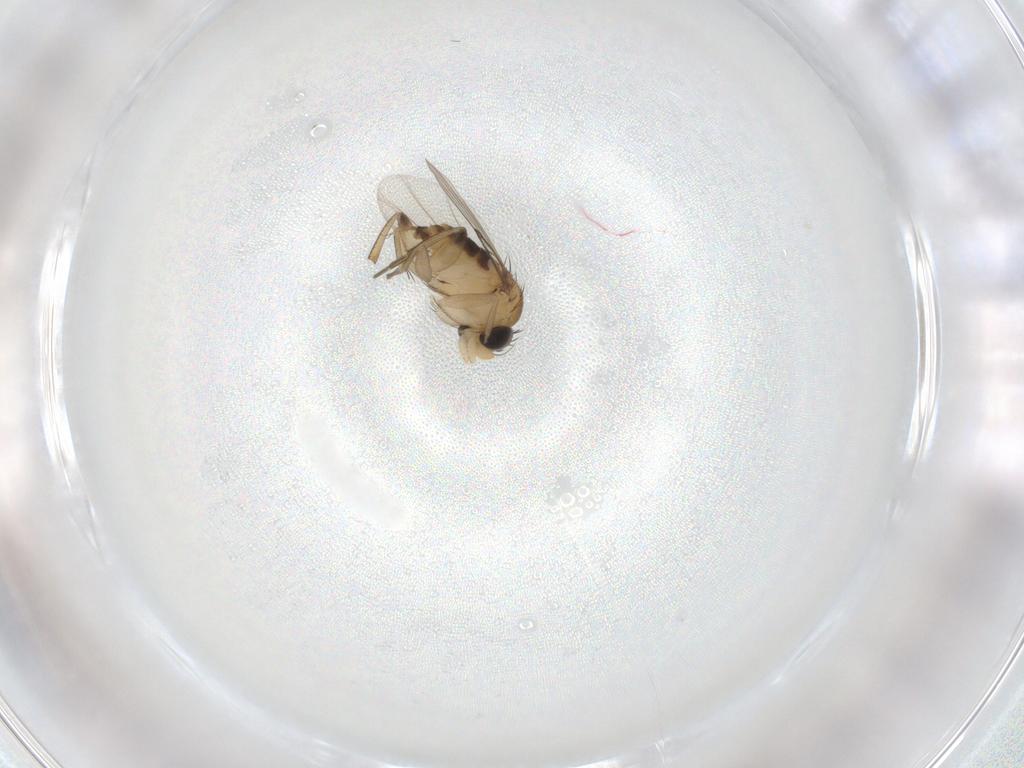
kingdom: Animalia
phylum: Arthropoda
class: Insecta
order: Diptera
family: Phoridae
